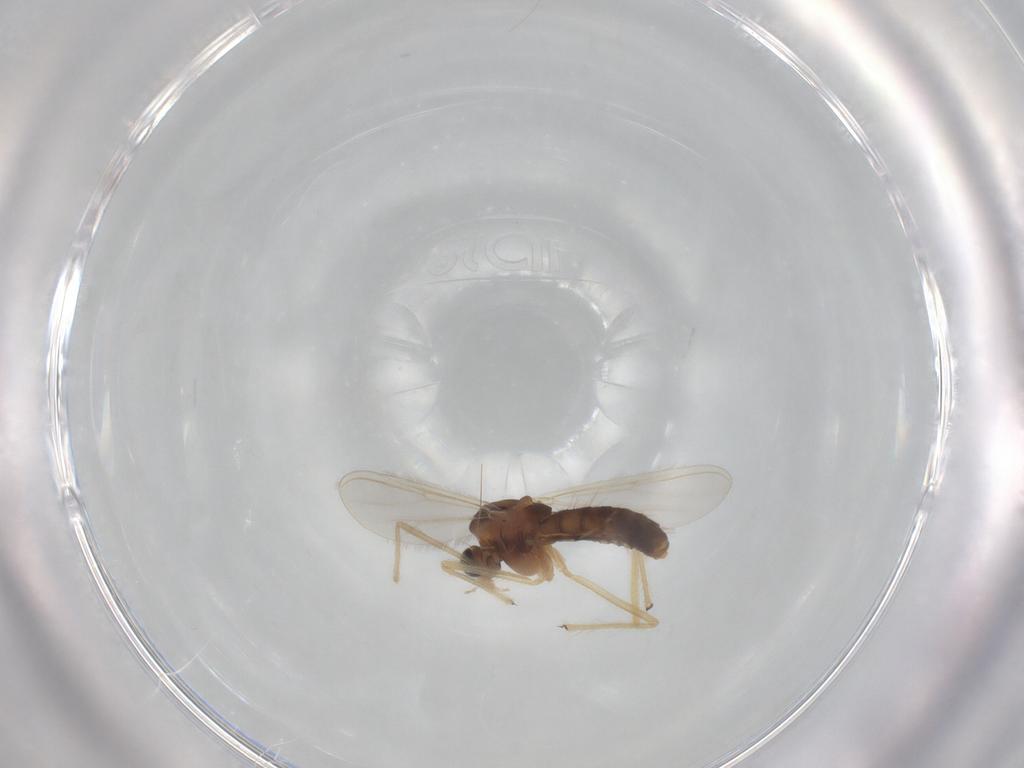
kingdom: Animalia
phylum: Arthropoda
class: Insecta
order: Diptera
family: Chironomidae
